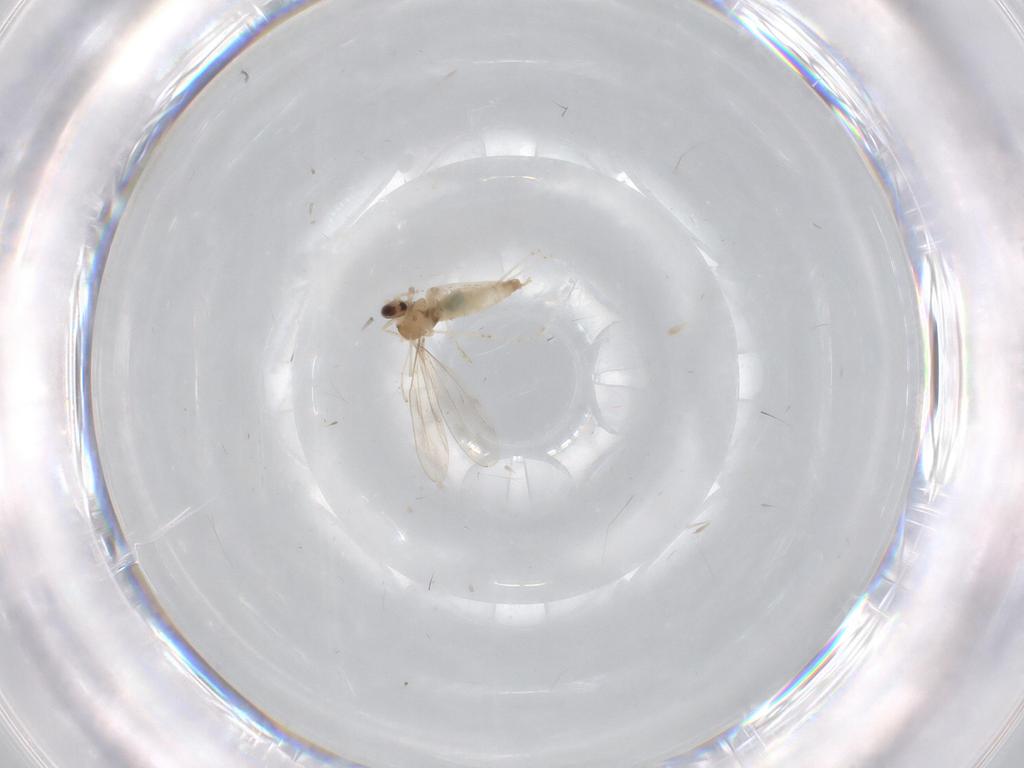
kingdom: Animalia
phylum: Arthropoda
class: Insecta
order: Diptera
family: Cecidomyiidae
